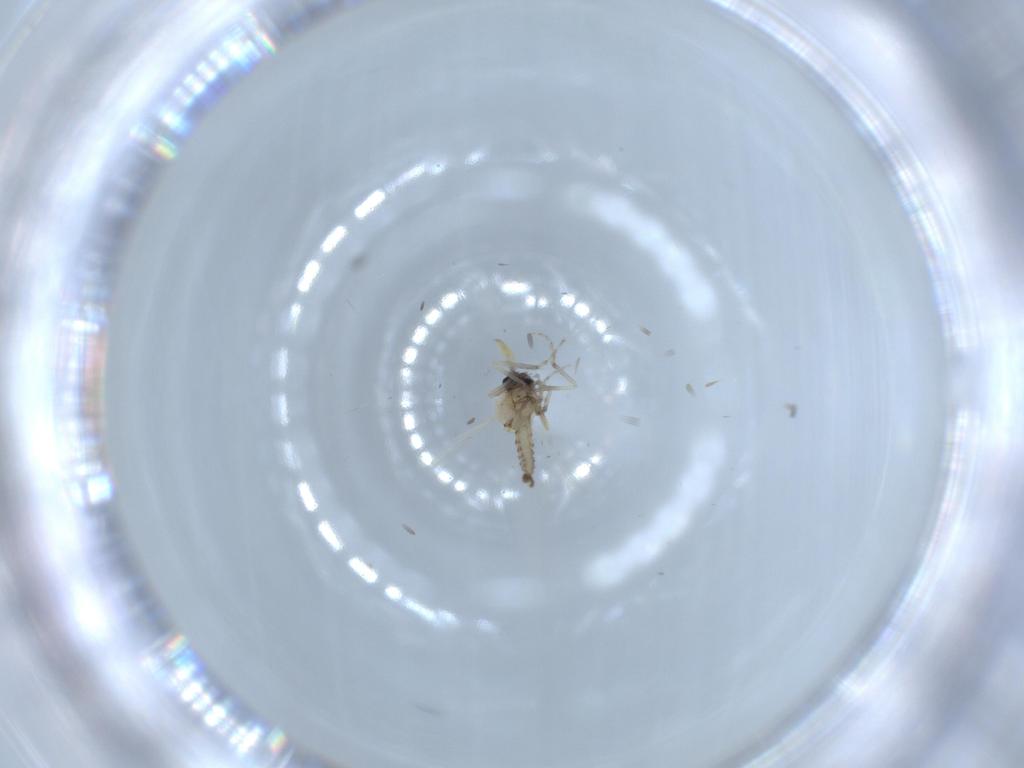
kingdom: Animalia
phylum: Arthropoda
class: Insecta
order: Diptera
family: Ceratopogonidae
